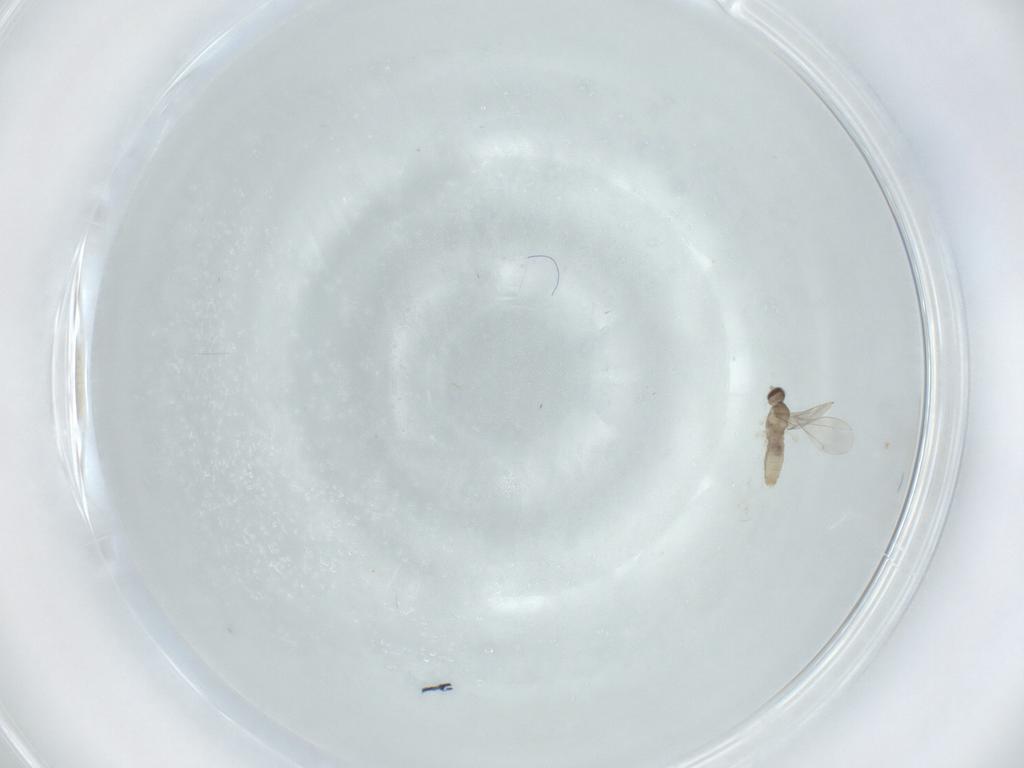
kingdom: Animalia
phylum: Arthropoda
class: Insecta
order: Diptera
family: Cecidomyiidae
